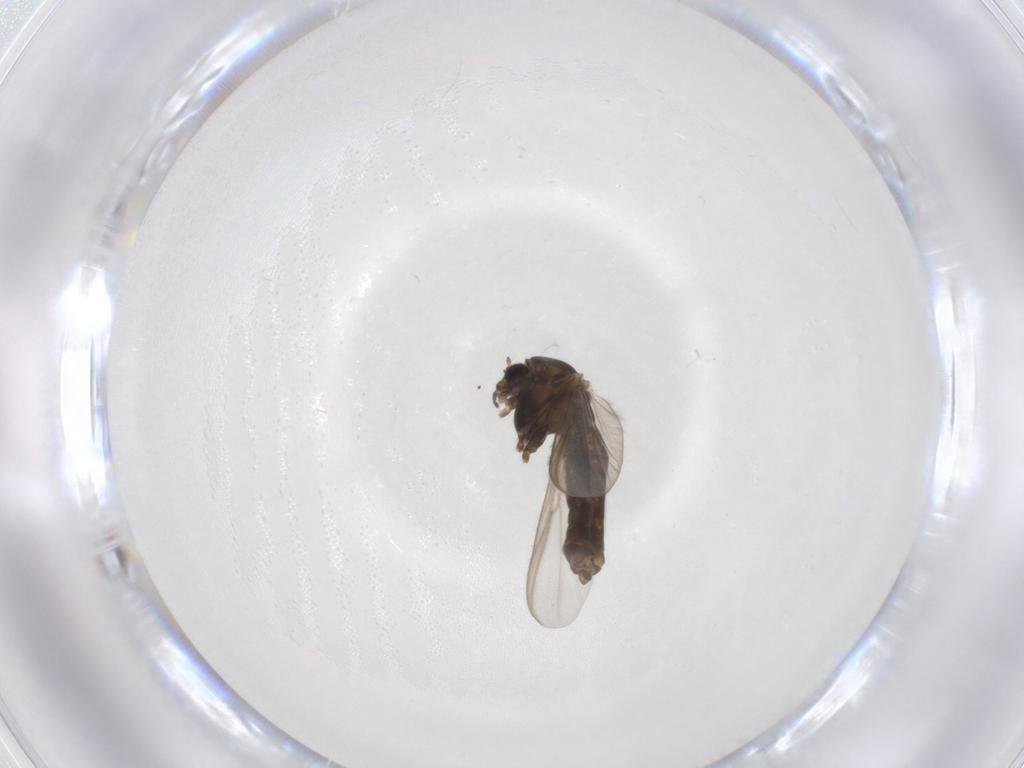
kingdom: Animalia
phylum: Arthropoda
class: Insecta
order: Diptera
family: Chironomidae
